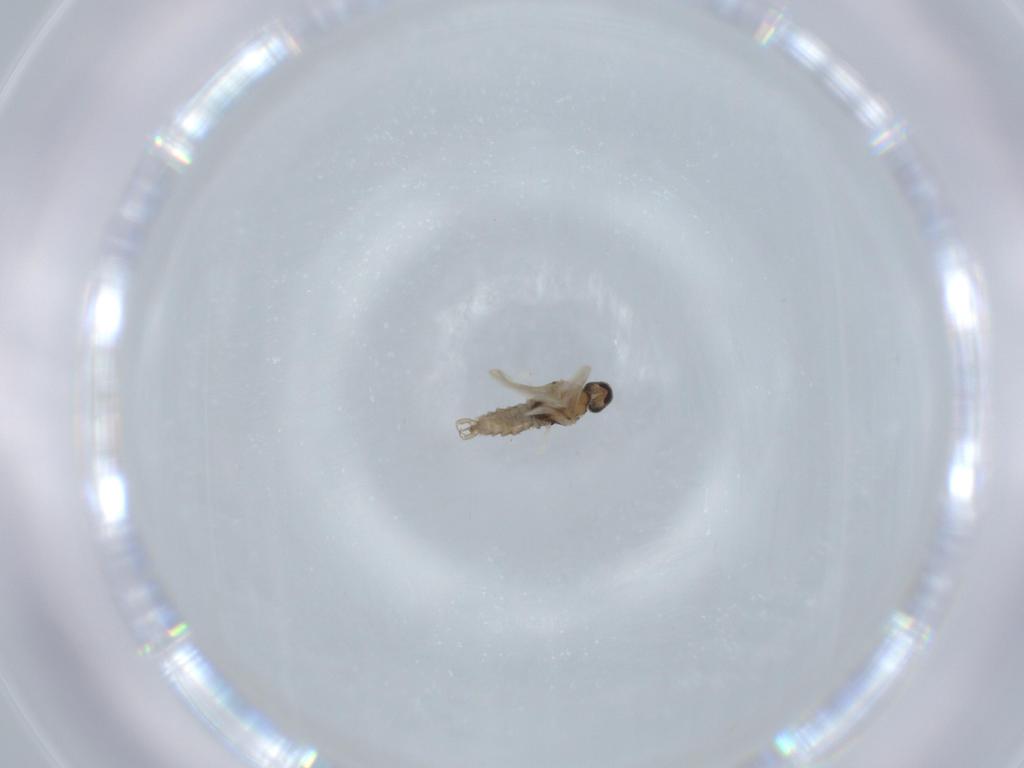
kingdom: Animalia
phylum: Arthropoda
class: Insecta
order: Diptera
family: Cecidomyiidae
